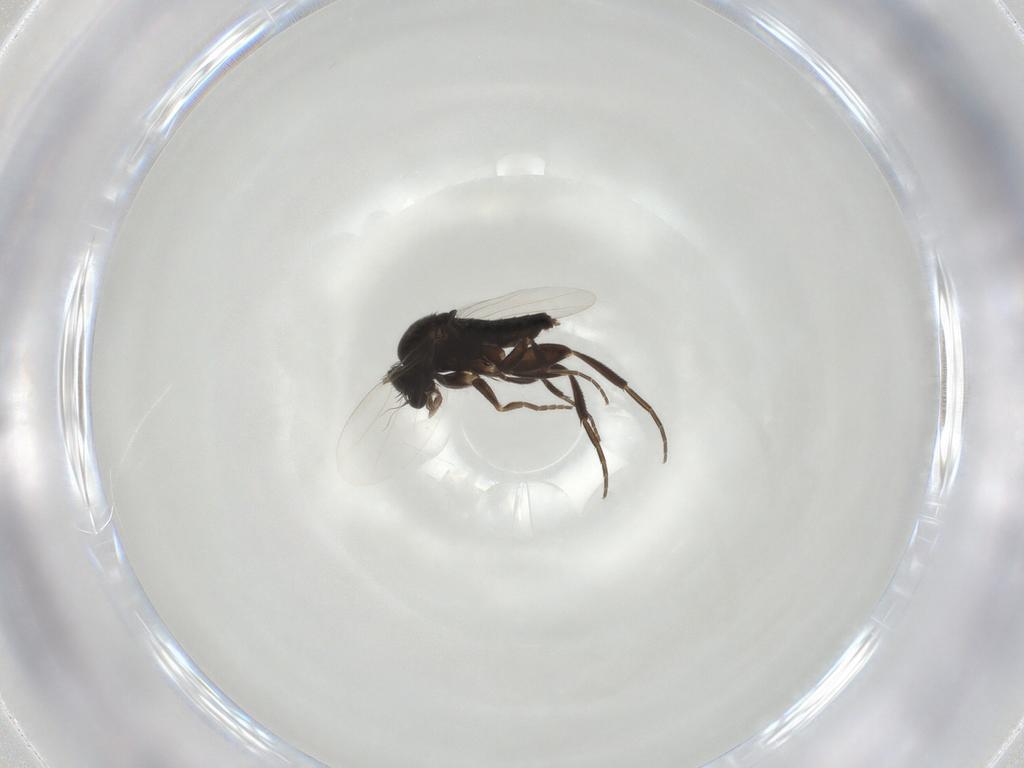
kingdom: Animalia
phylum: Arthropoda
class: Insecta
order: Diptera
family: Phoridae
